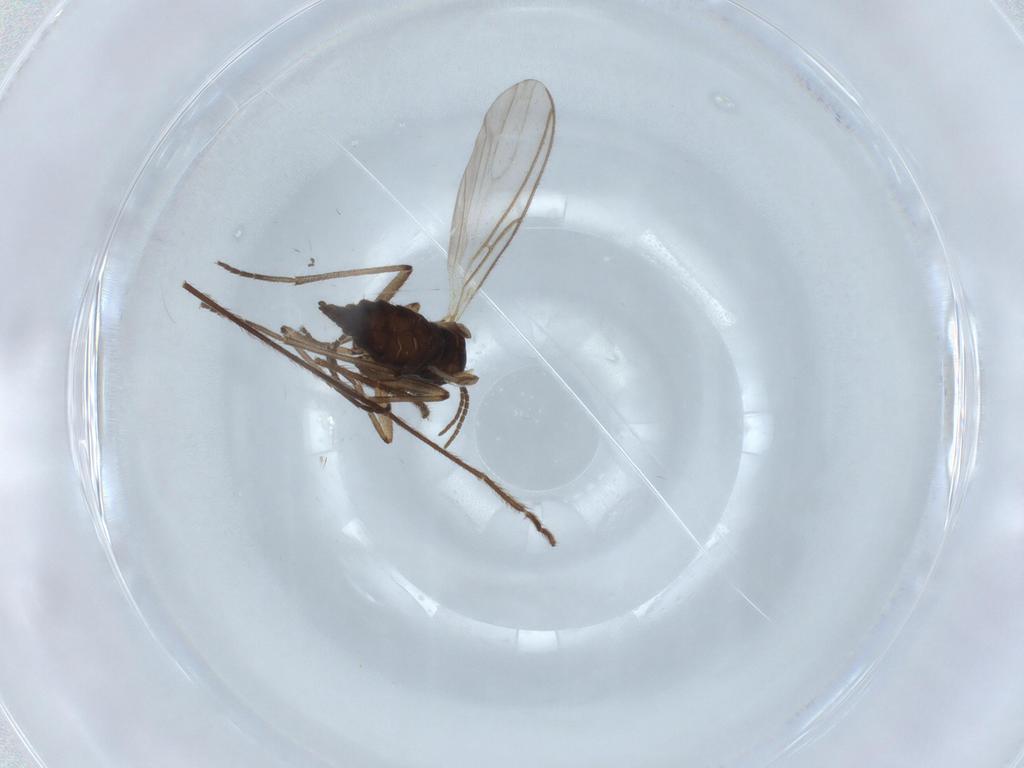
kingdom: Animalia
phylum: Arthropoda
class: Insecta
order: Diptera
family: Sciaridae
